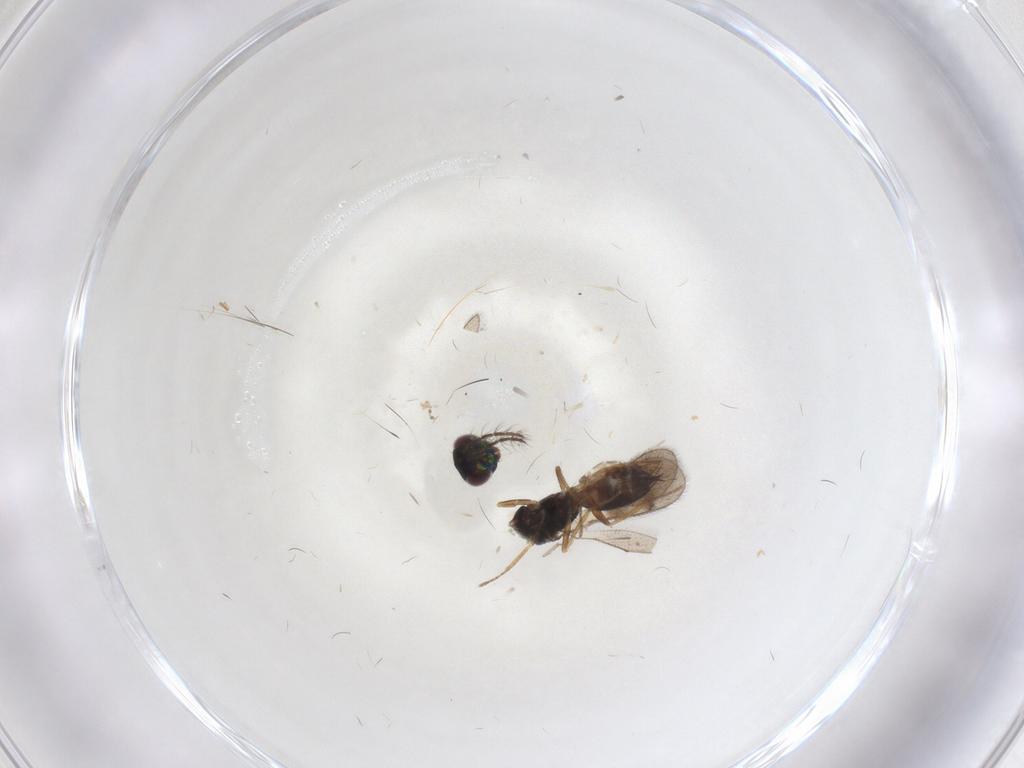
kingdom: Animalia
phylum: Arthropoda
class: Insecta
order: Hymenoptera
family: Eulophidae
